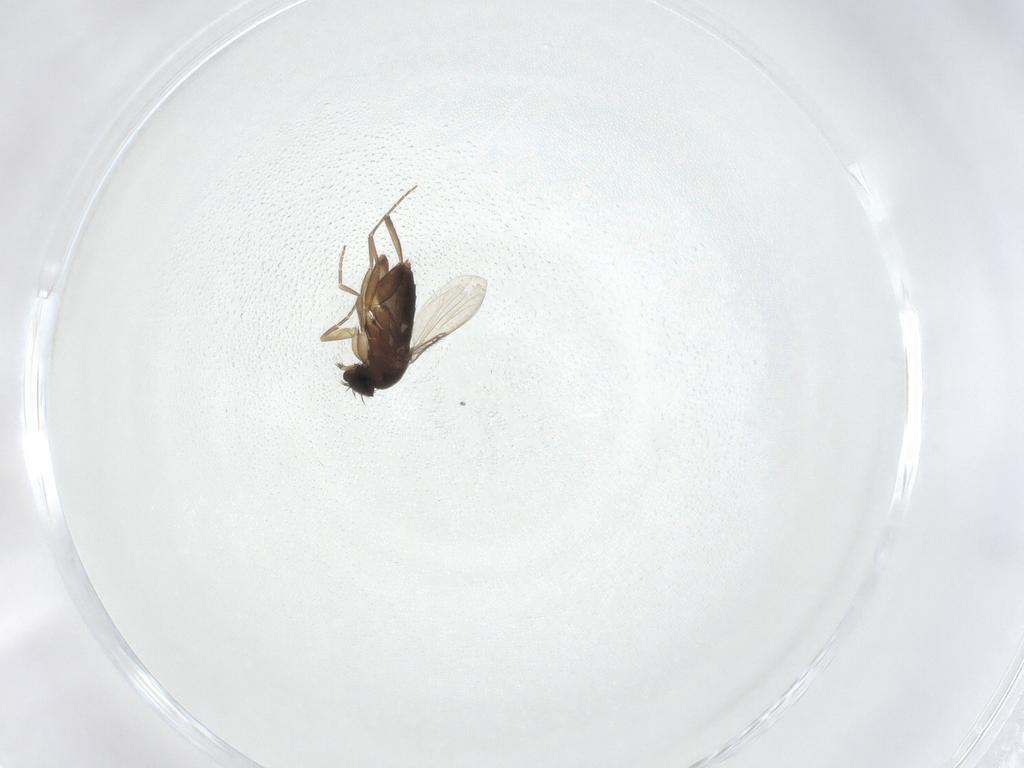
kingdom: Animalia
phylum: Arthropoda
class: Insecta
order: Diptera
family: Phoridae
